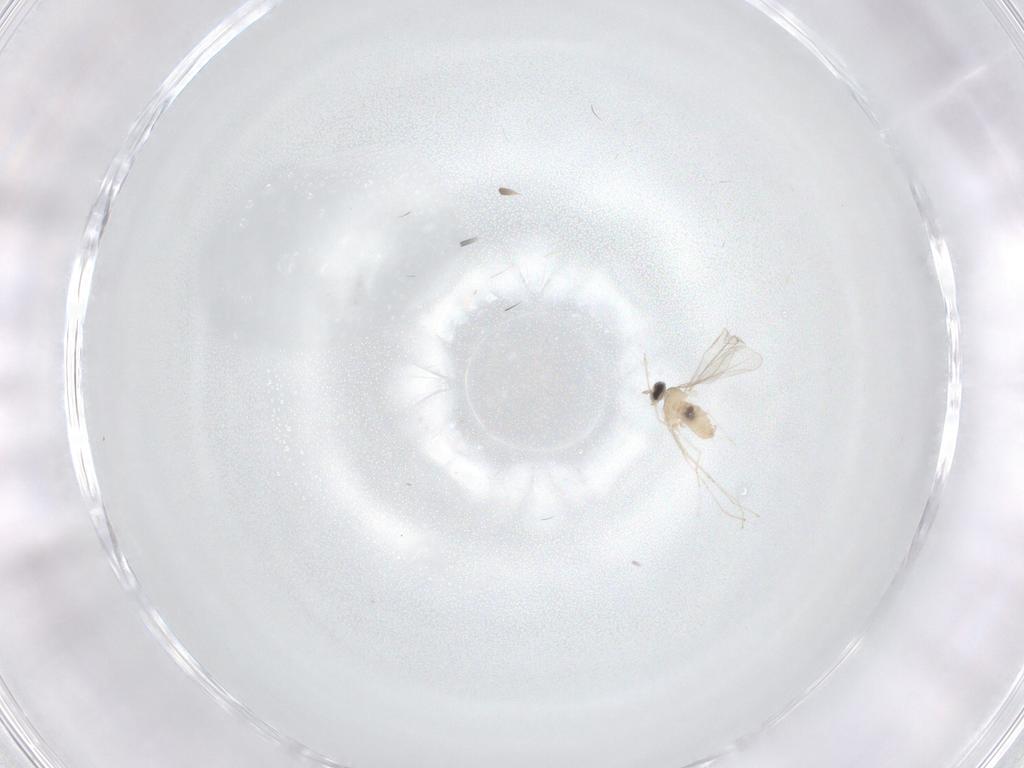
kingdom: Animalia
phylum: Arthropoda
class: Insecta
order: Diptera
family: Cecidomyiidae
